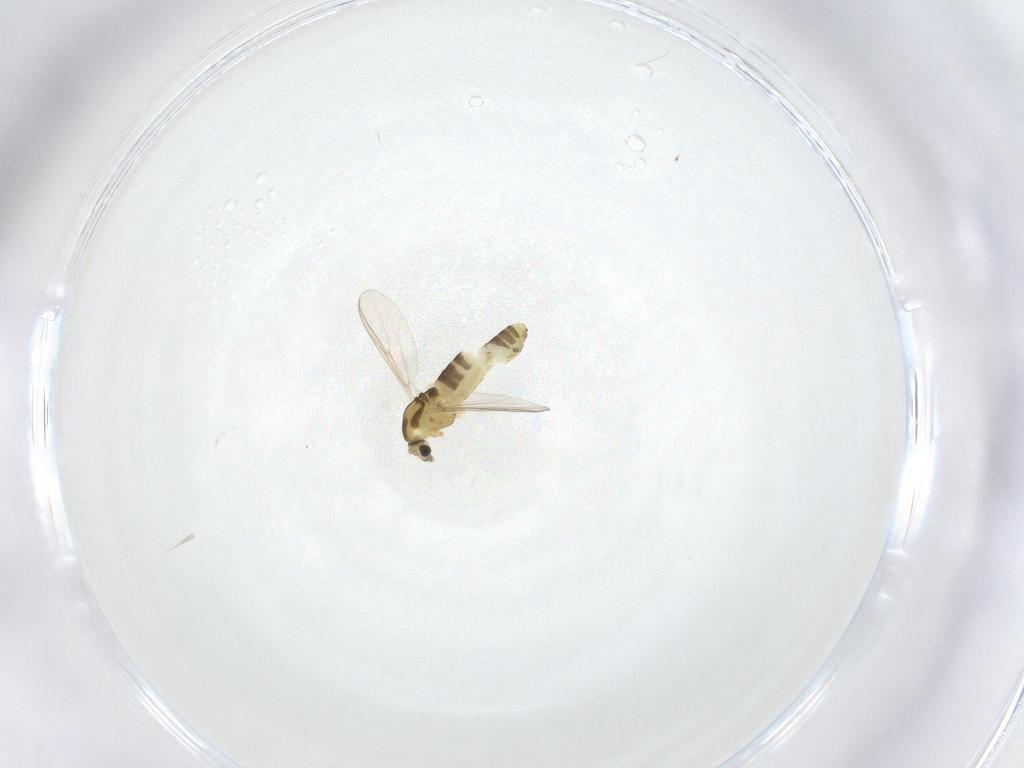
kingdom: Animalia
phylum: Arthropoda
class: Insecta
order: Diptera
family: Chironomidae
